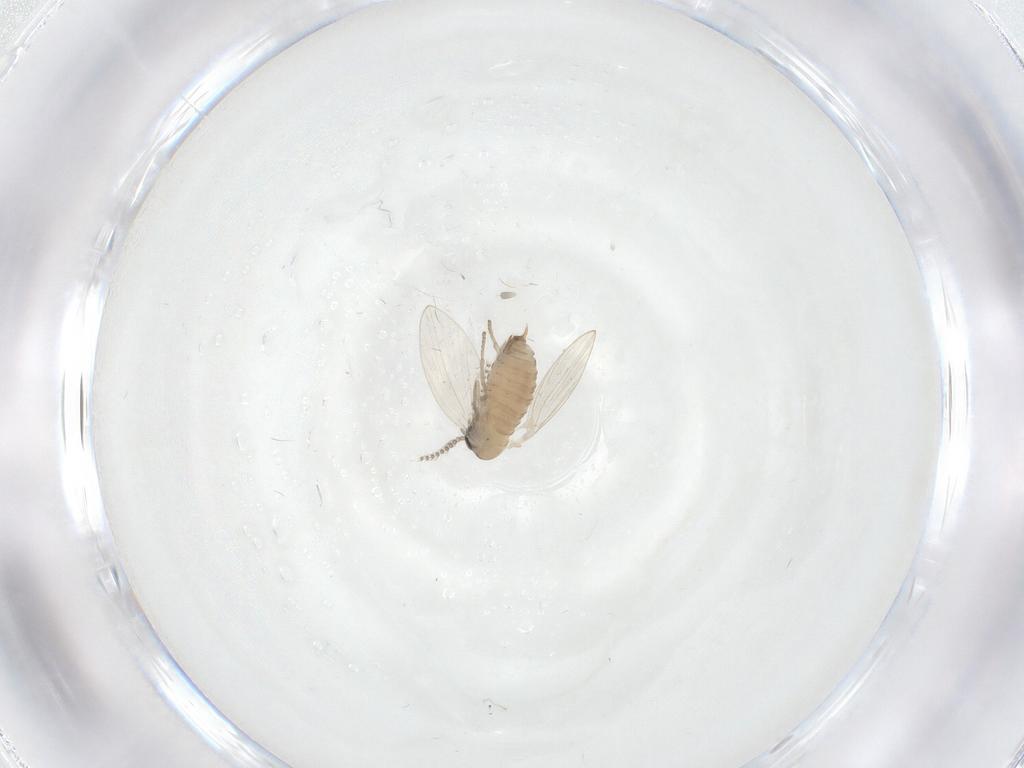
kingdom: Animalia
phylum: Arthropoda
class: Insecta
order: Diptera
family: Psychodidae
